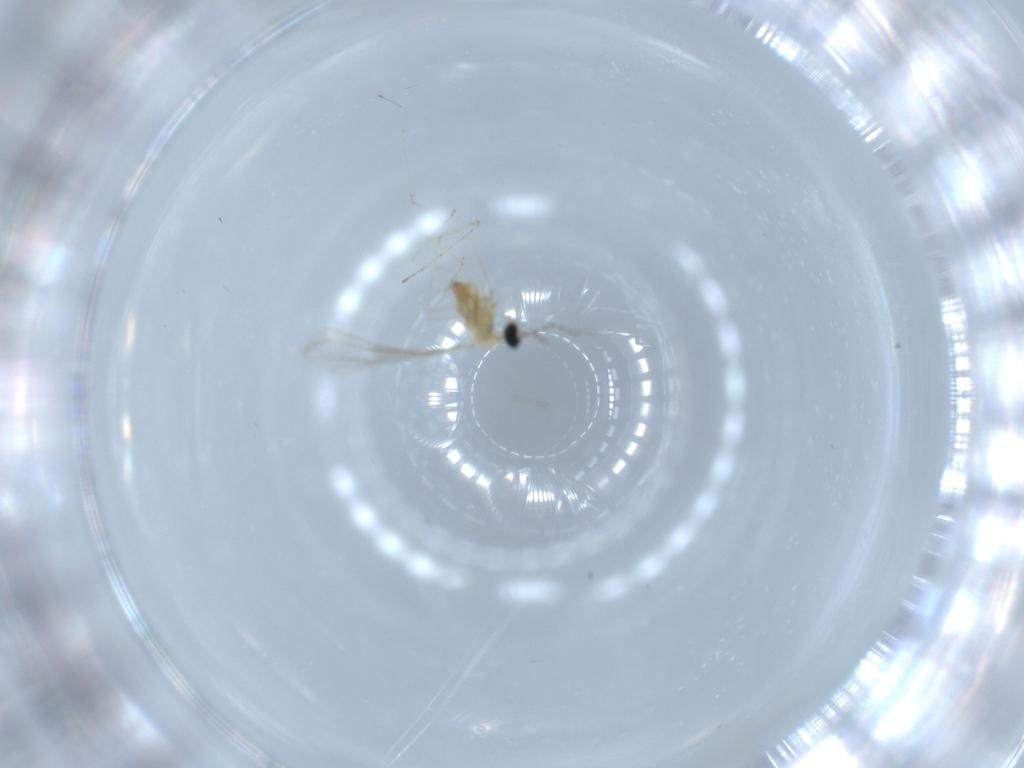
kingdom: Animalia
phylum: Arthropoda
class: Insecta
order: Diptera
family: Cecidomyiidae
